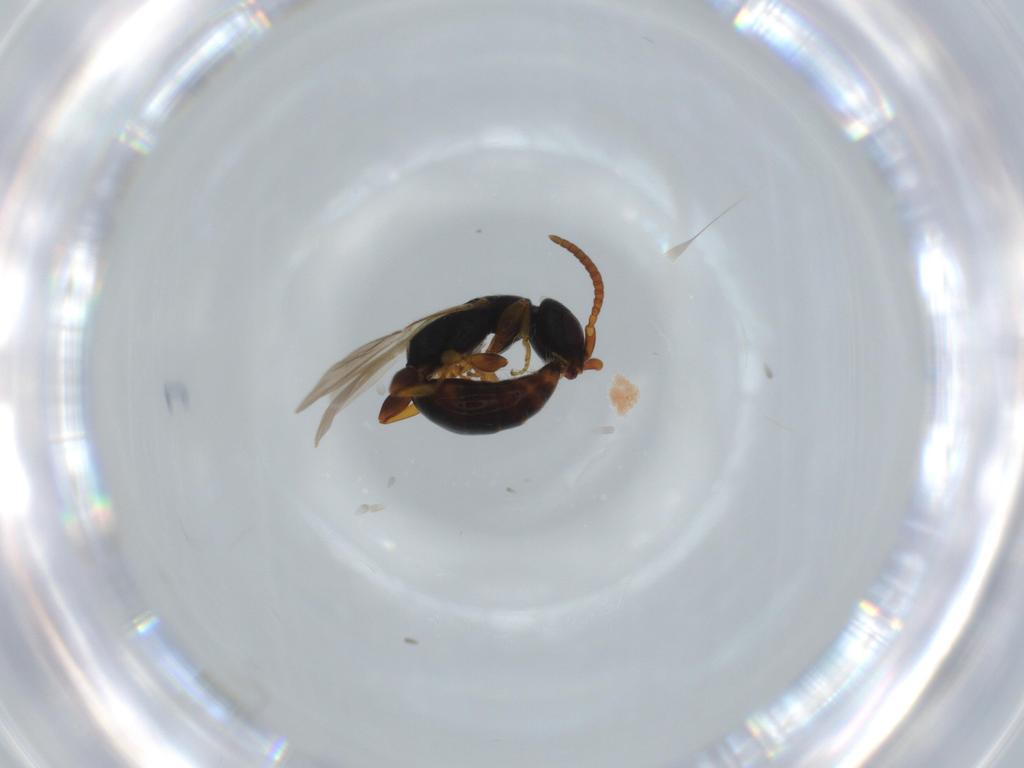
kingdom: Animalia
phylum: Arthropoda
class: Insecta
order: Hymenoptera
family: Bethylidae
